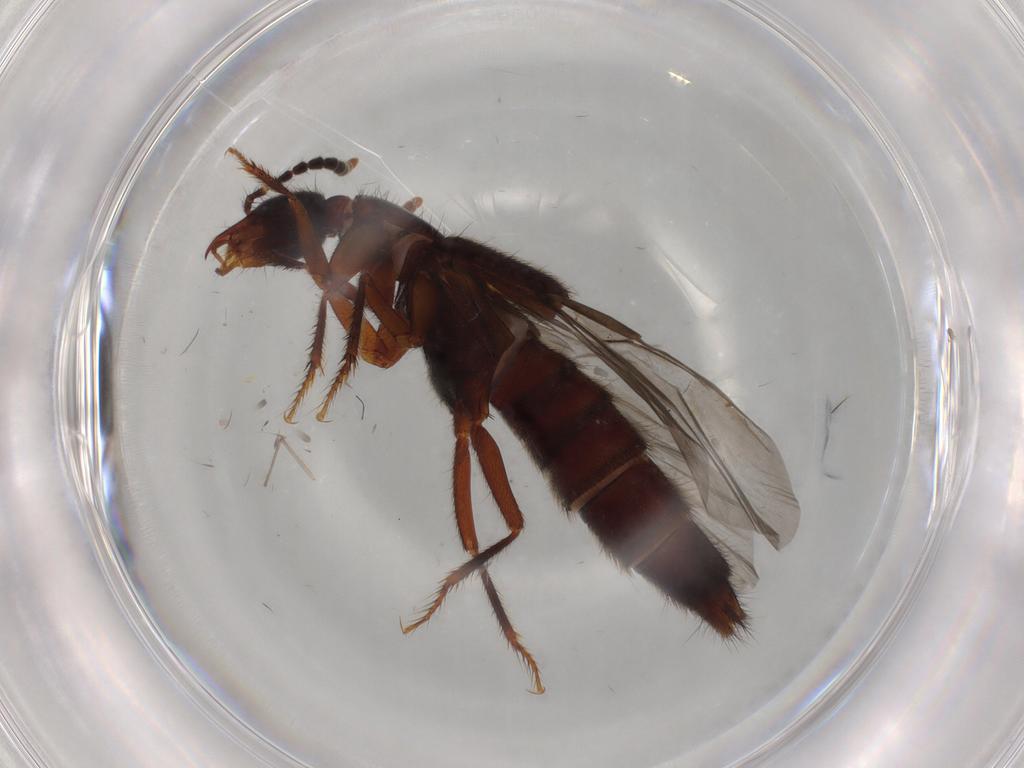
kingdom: Animalia
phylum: Arthropoda
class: Insecta
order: Coleoptera
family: Staphylinidae
